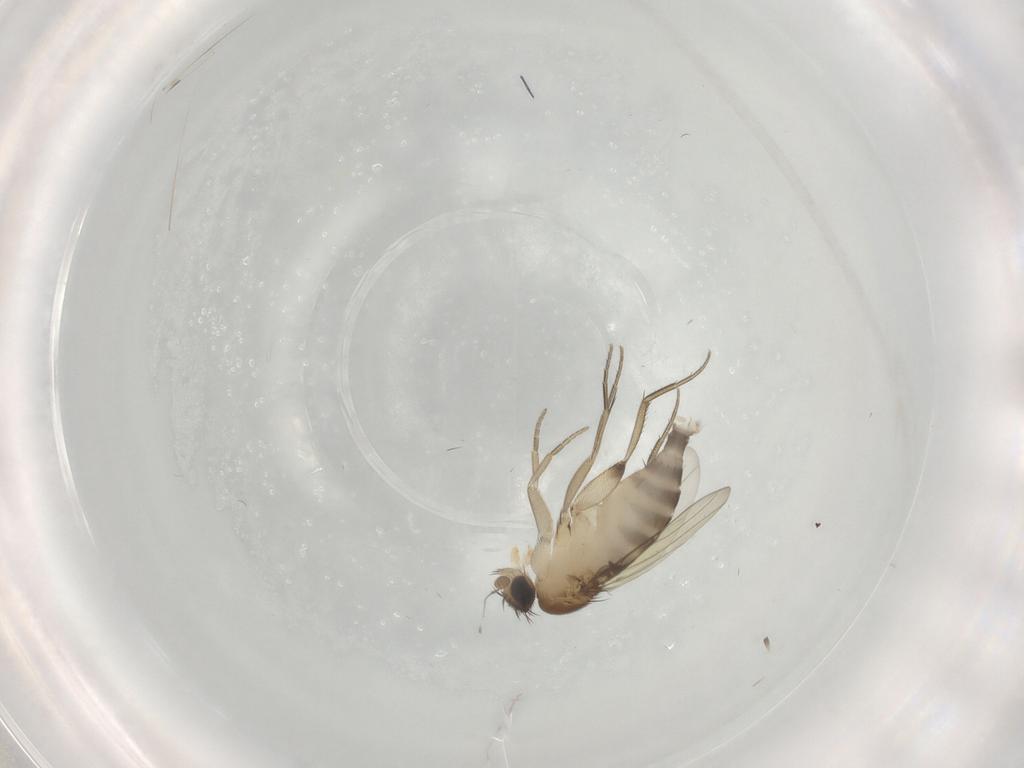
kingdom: Animalia
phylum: Arthropoda
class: Insecta
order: Diptera
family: Phoridae
